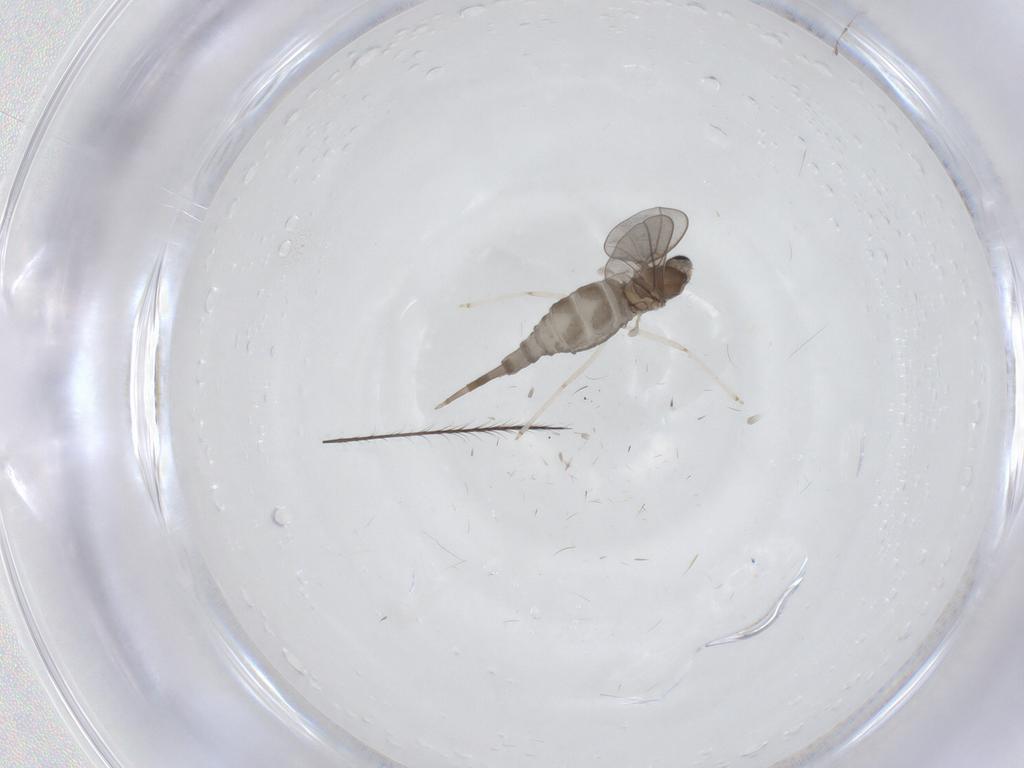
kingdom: Animalia
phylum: Arthropoda
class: Insecta
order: Diptera
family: Cecidomyiidae
